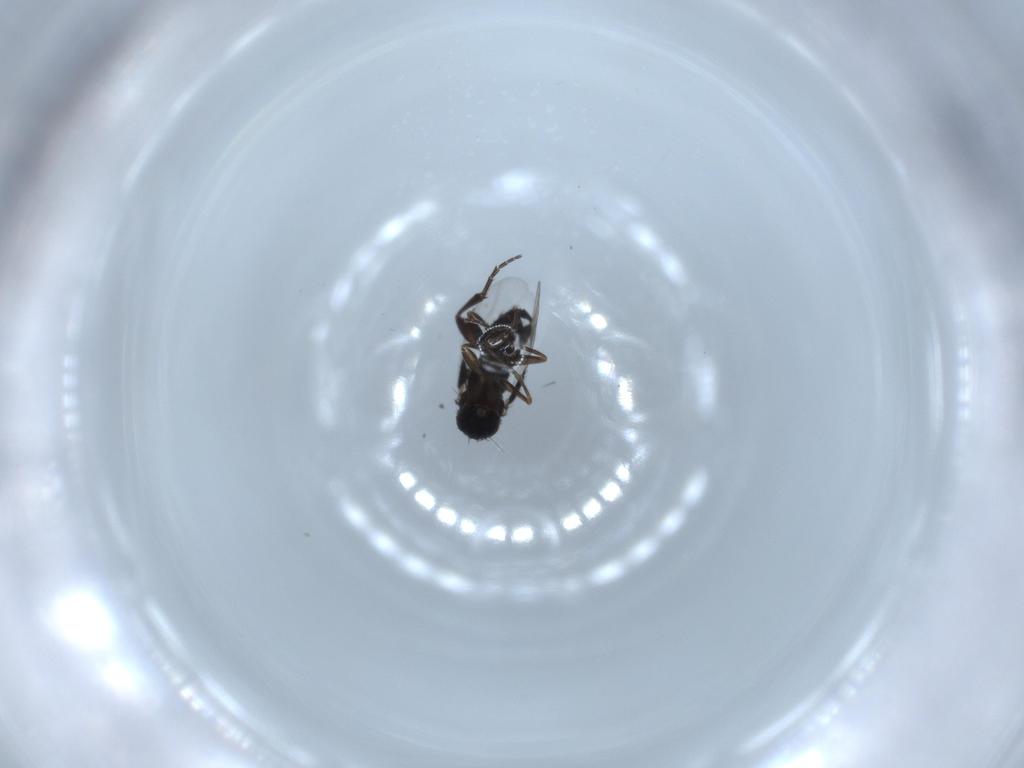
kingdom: Animalia
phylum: Arthropoda
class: Insecta
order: Diptera
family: Phoridae
